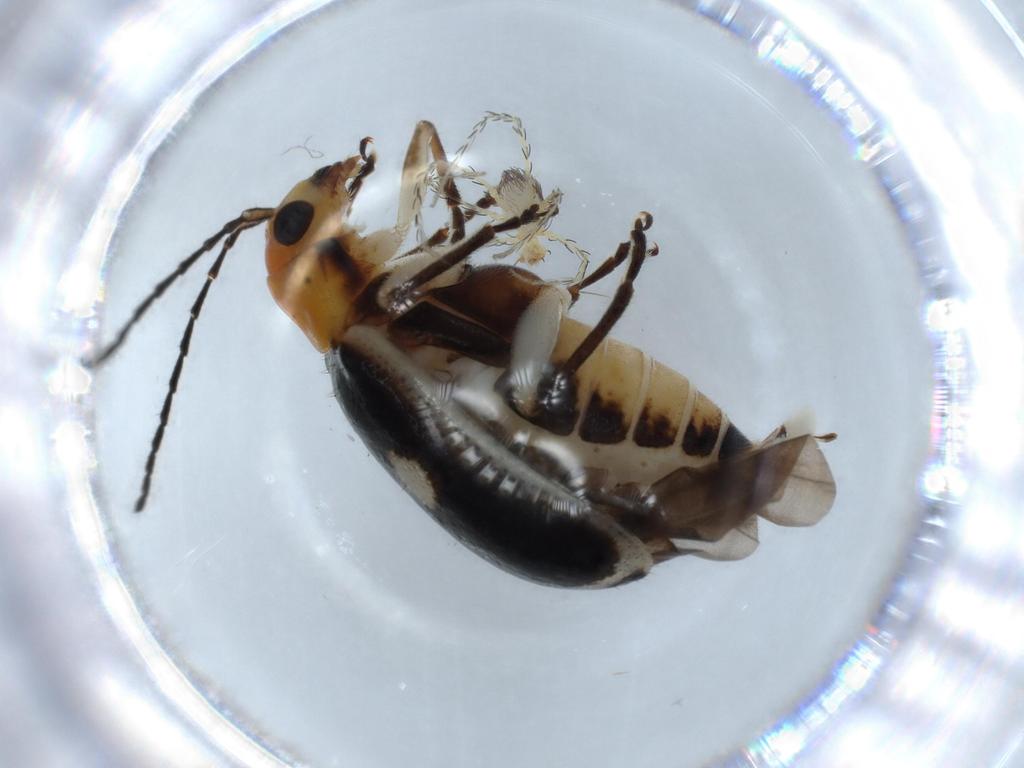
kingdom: Animalia
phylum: Arthropoda
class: Insecta
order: Coleoptera
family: Chrysomelidae
